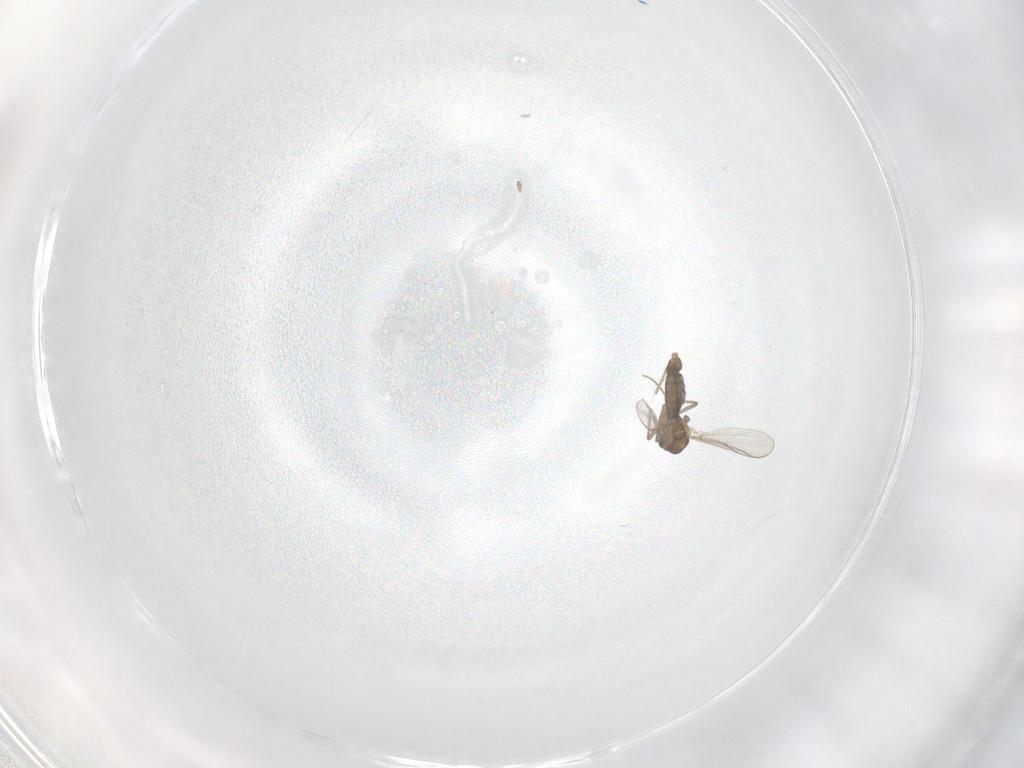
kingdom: Animalia
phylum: Arthropoda
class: Insecta
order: Diptera
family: Chironomidae
